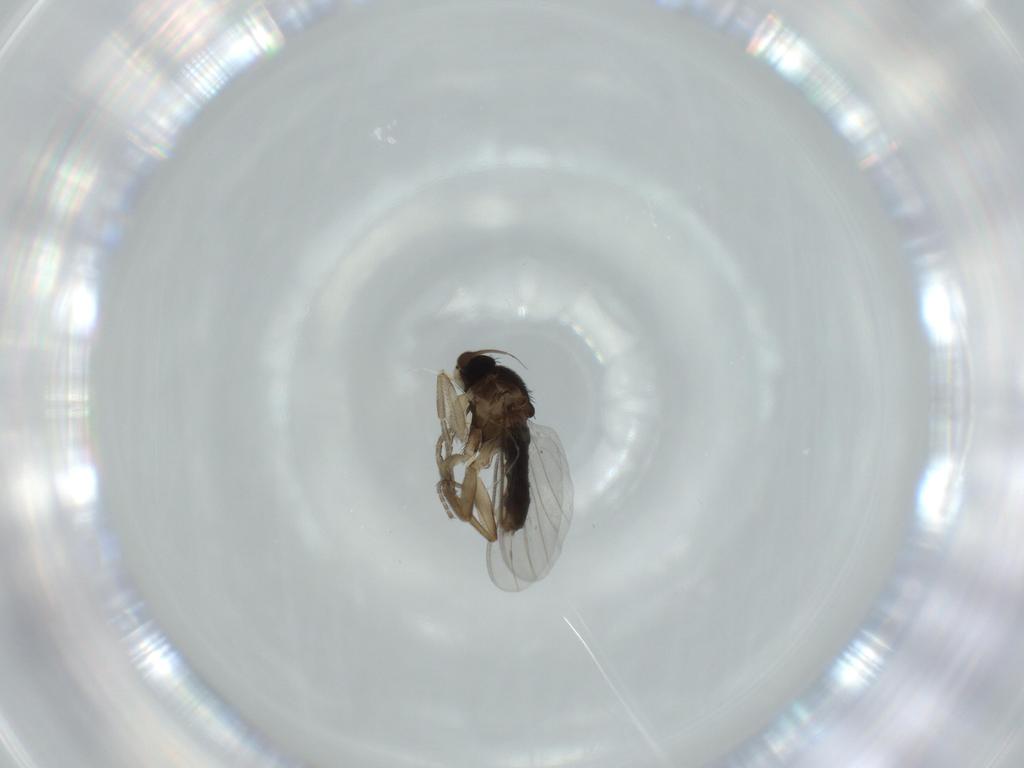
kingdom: Animalia
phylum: Arthropoda
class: Insecta
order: Diptera
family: Phoridae
